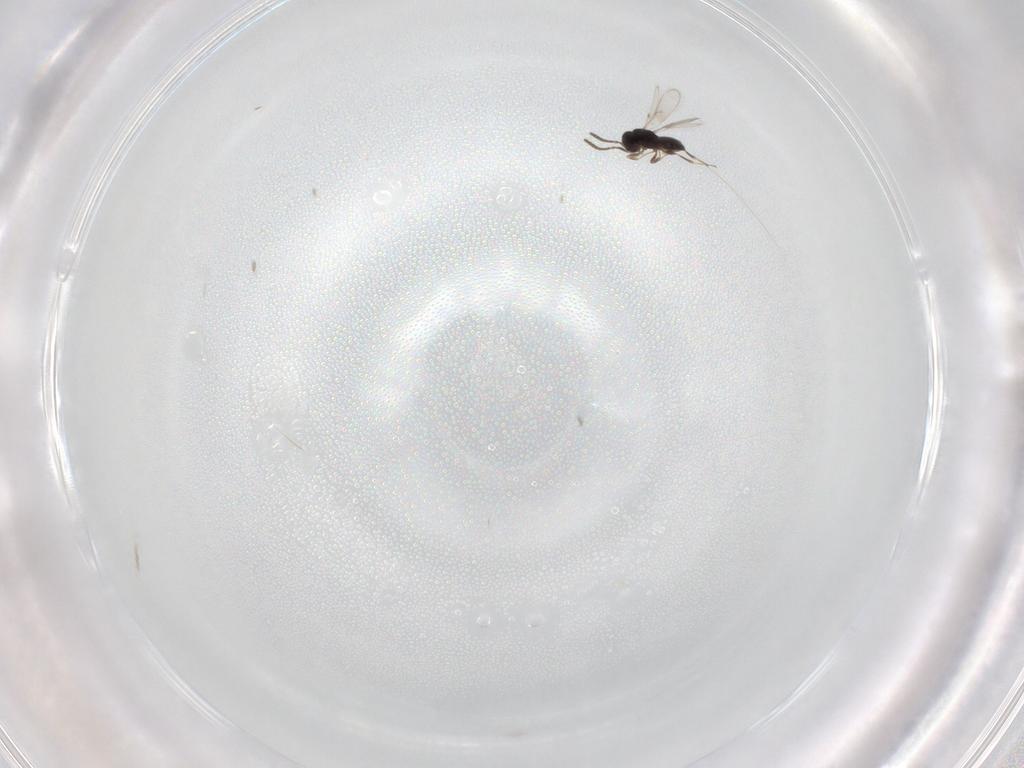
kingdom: Animalia
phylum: Arthropoda
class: Insecta
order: Hymenoptera
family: Scelionidae
